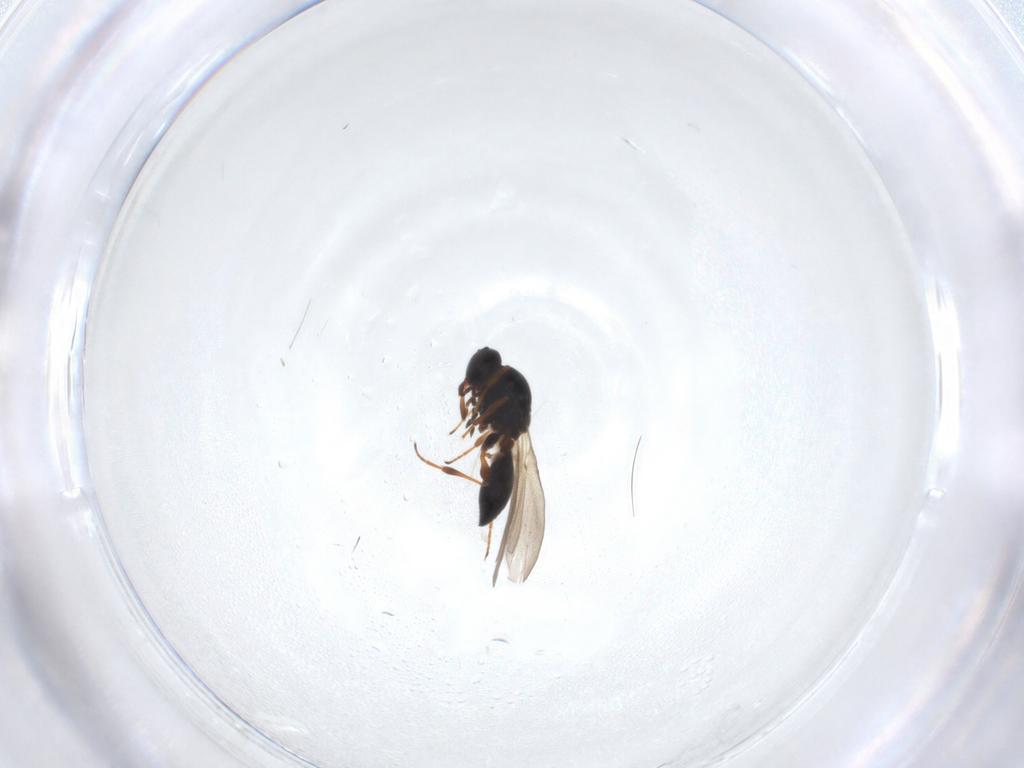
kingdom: Animalia
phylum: Arthropoda
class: Insecta
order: Hymenoptera
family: Platygastridae
